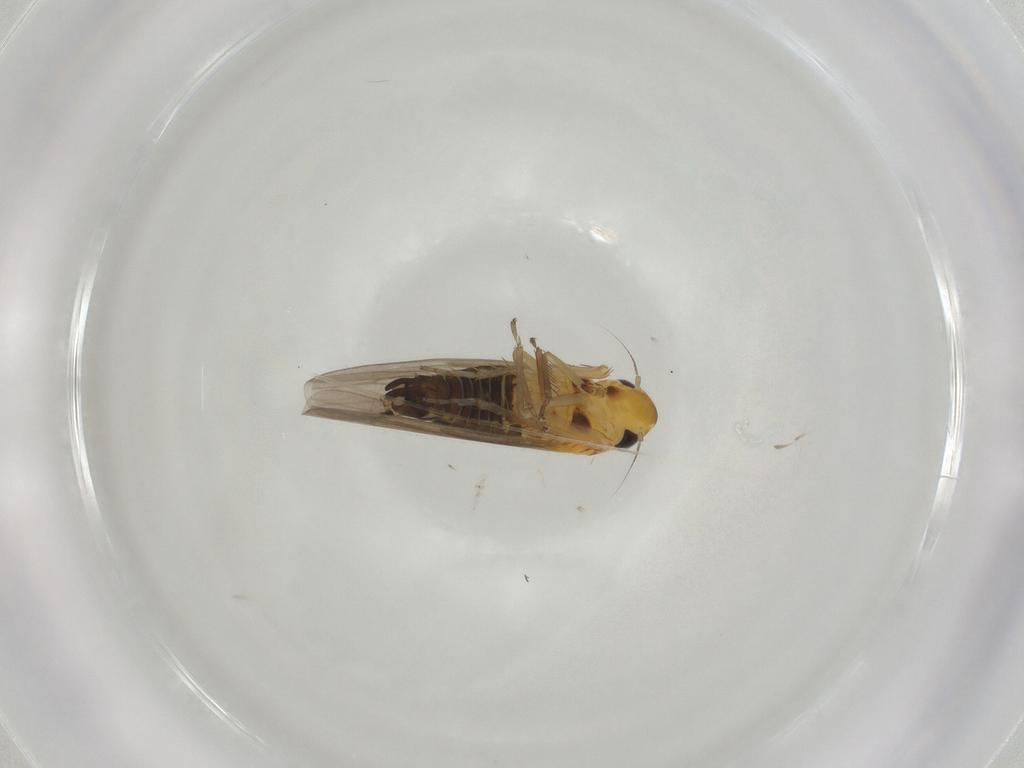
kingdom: Animalia
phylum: Arthropoda
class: Insecta
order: Hemiptera
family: Cicadellidae
